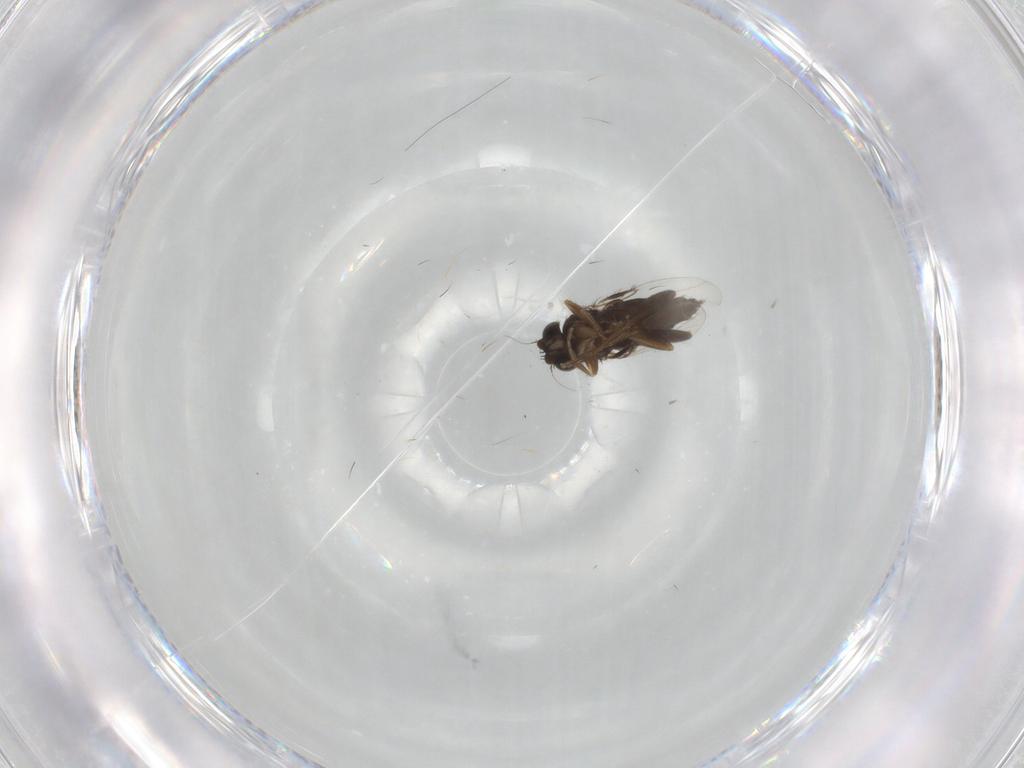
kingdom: Animalia
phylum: Arthropoda
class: Insecta
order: Diptera
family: Phoridae
